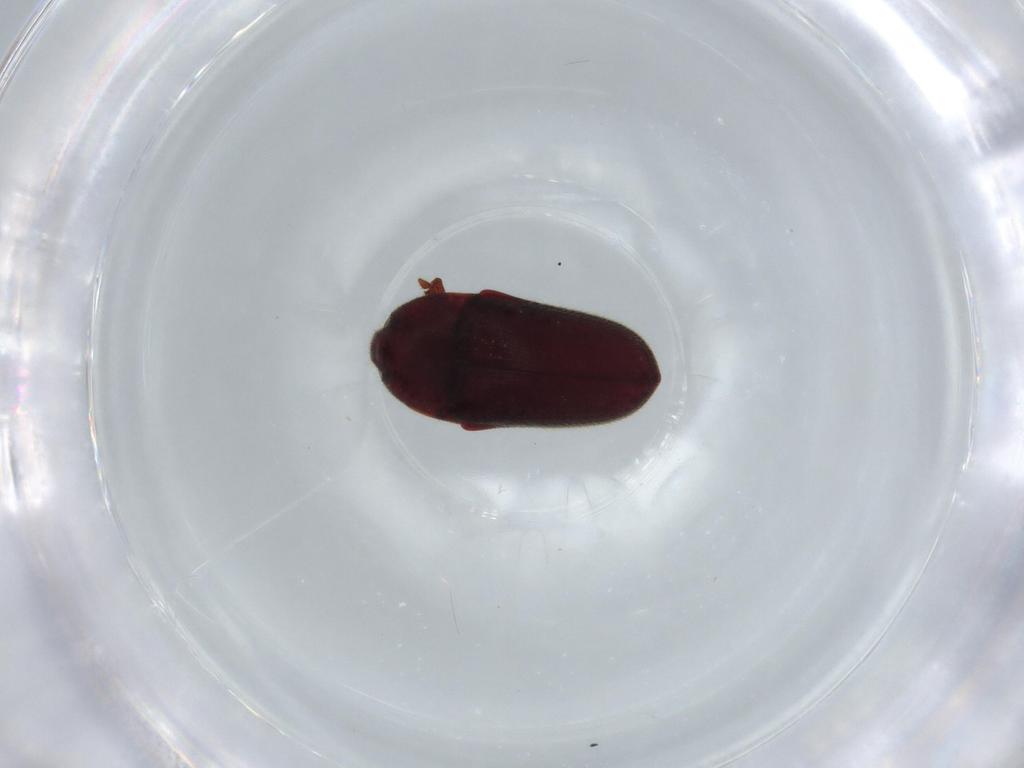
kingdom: Animalia
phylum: Arthropoda
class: Insecta
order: Coleoptera
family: Throscidae
